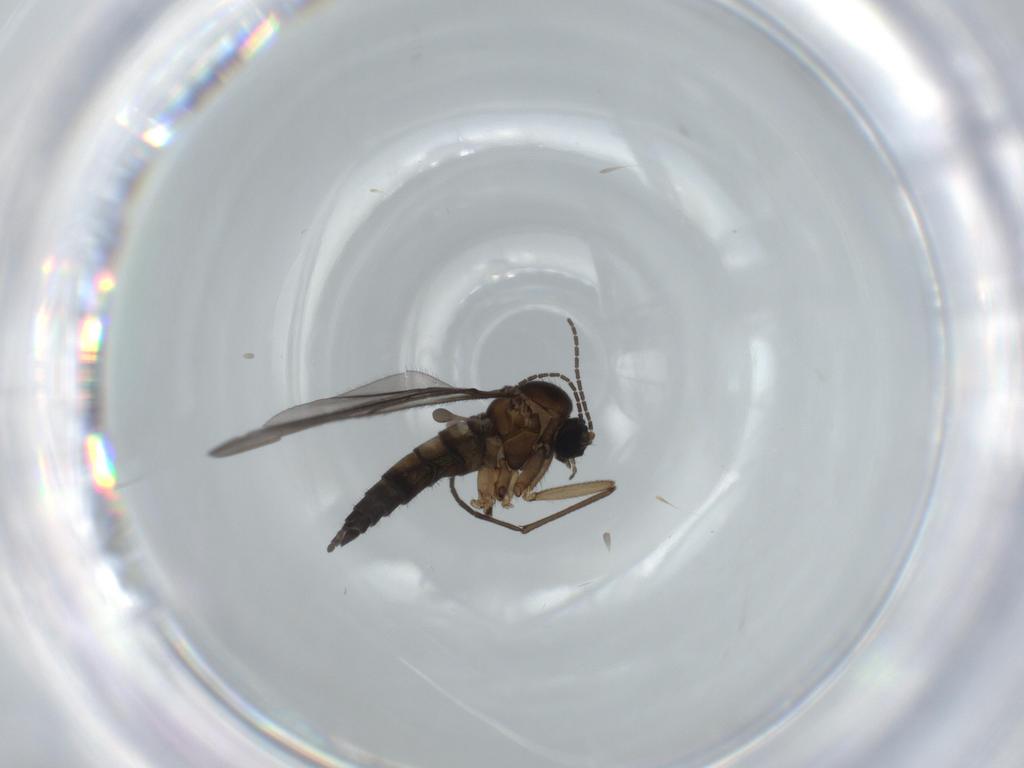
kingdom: Animalia
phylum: Arthropoda
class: Insecta
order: Diptera
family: Sciaridae
